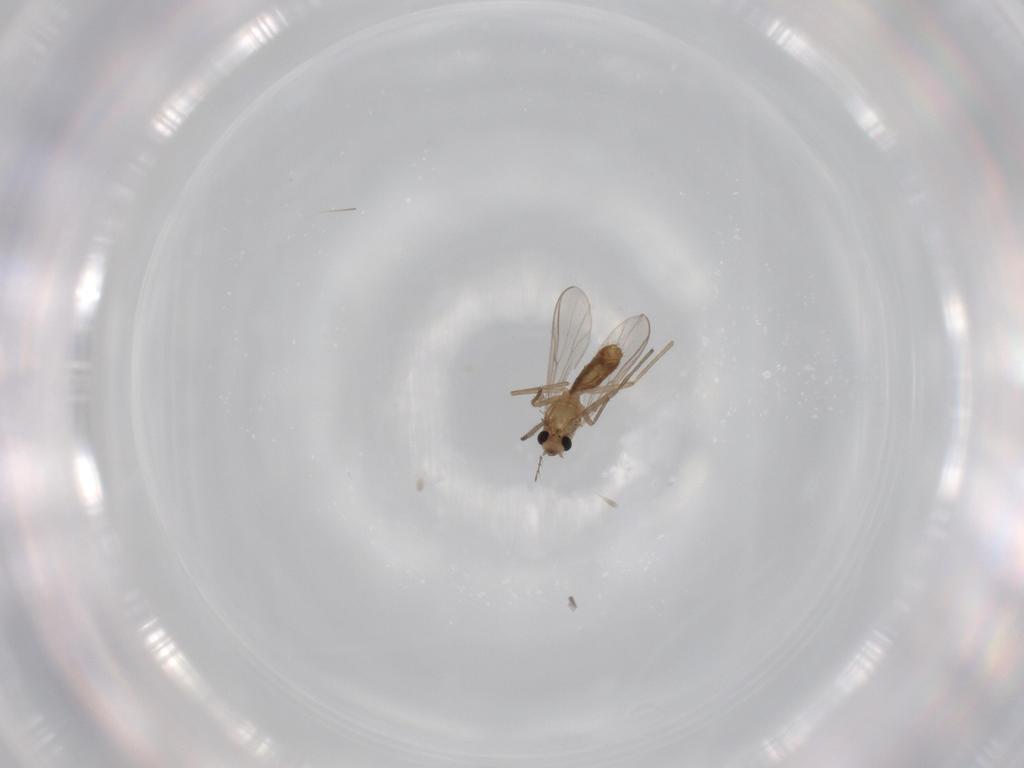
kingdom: Animalia
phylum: Arthropoda
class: Insecta
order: Diptera
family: Chironomidae
